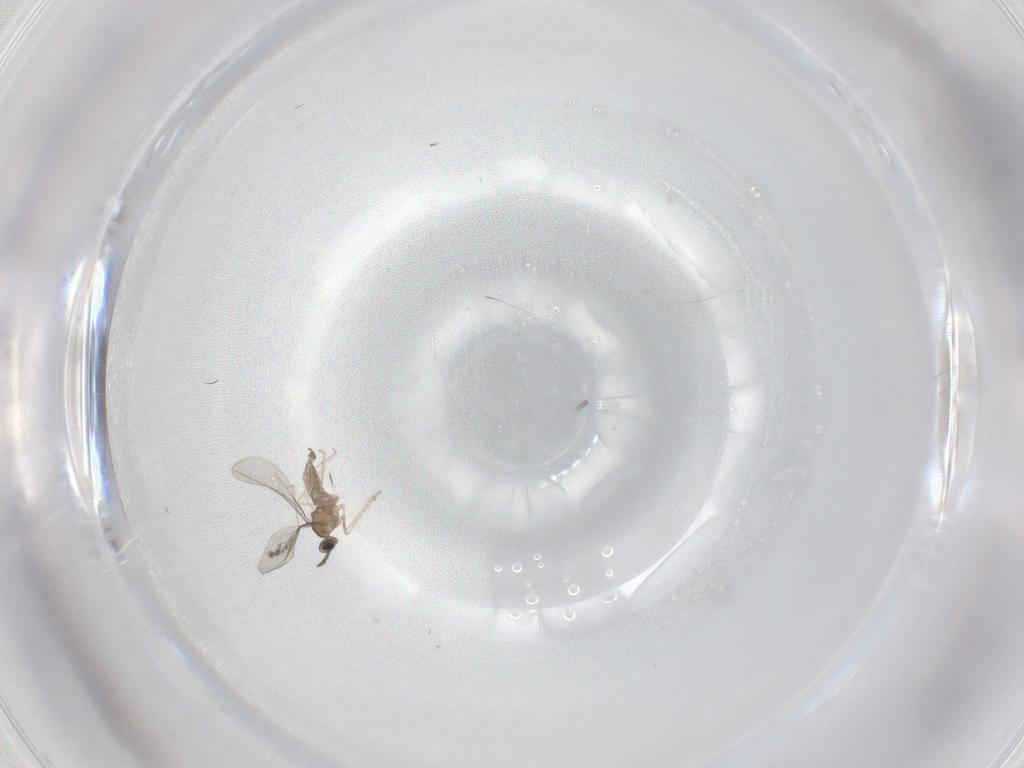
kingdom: Animalia
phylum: Arthropoda
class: Insecta
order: Diptera
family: Cecidomyiidae
